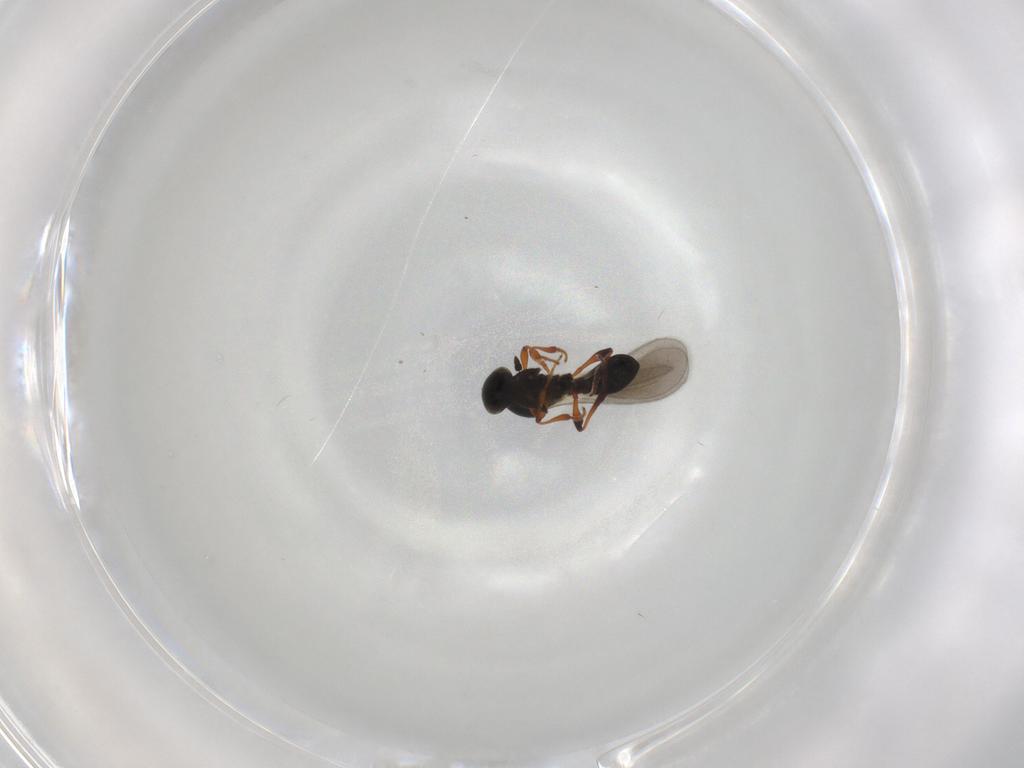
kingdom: Animalia
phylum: Arthropoda
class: Insecta
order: Hymenoptera
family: Platygastridae
